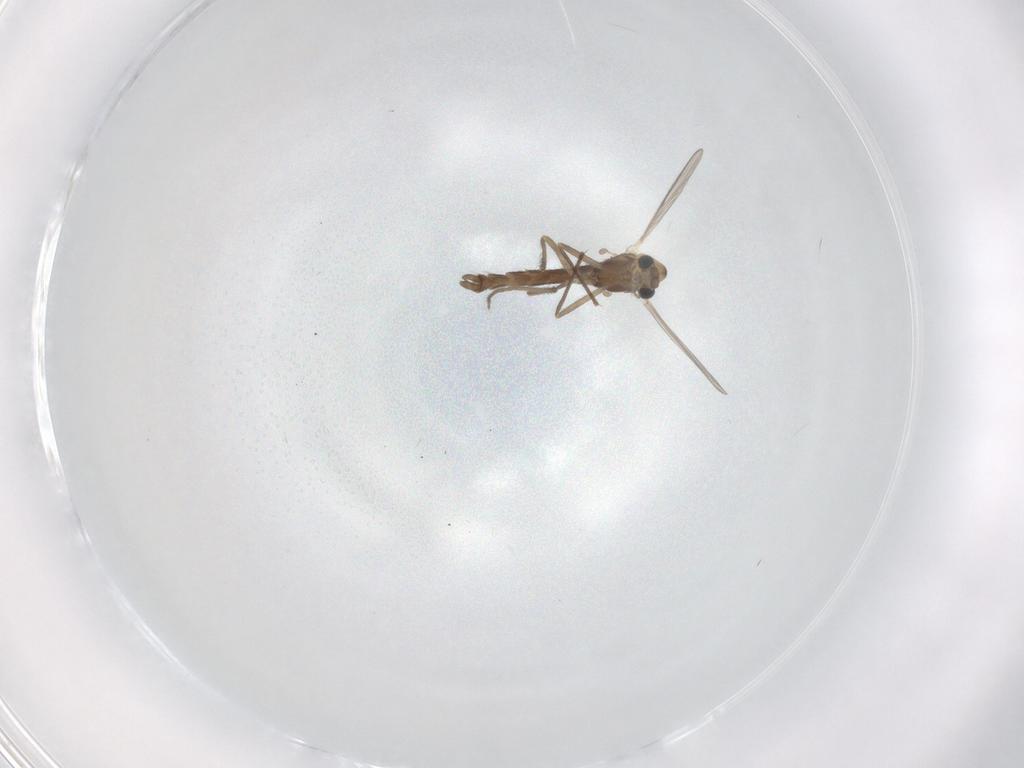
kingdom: Animalia
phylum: Arthropoda
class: Insecta
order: Diptera
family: Chironomidae
